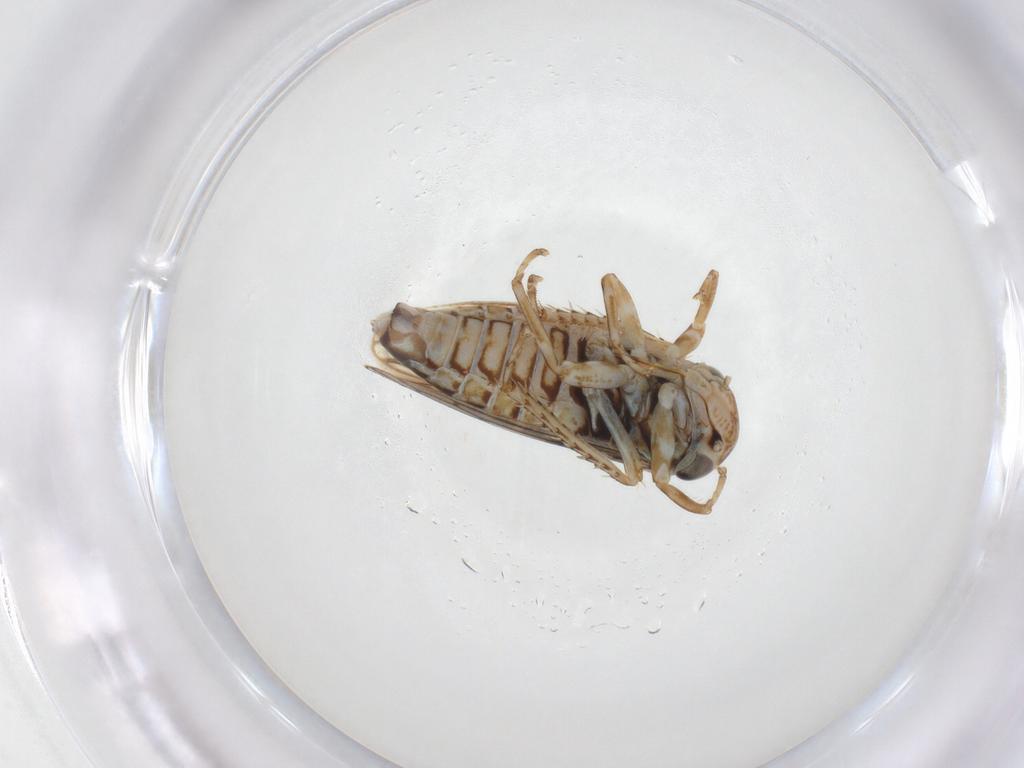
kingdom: Animalia
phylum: Arthropoda
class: Insecta
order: Hemiptera
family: Cicadellidae
